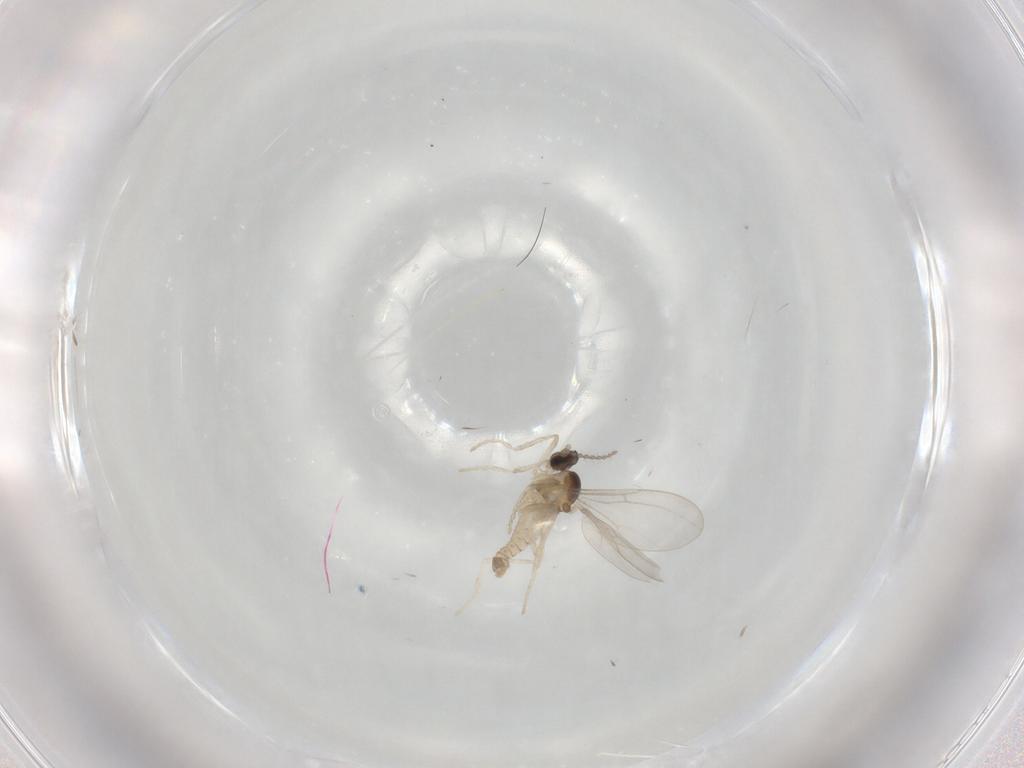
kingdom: Animalia
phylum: Arthropoda
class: Insecta
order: Diptera
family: Cecidomyiidae
